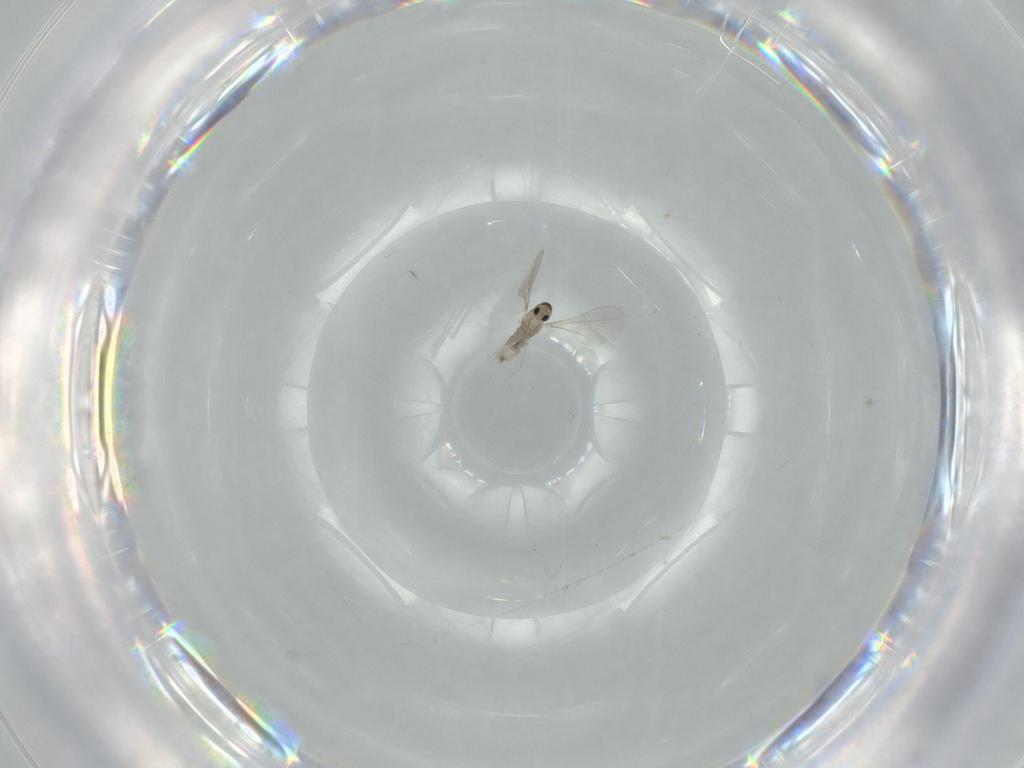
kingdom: Animalia
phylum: Arthropoda
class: Insecta
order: Diptera
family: Cecidomyiidae
